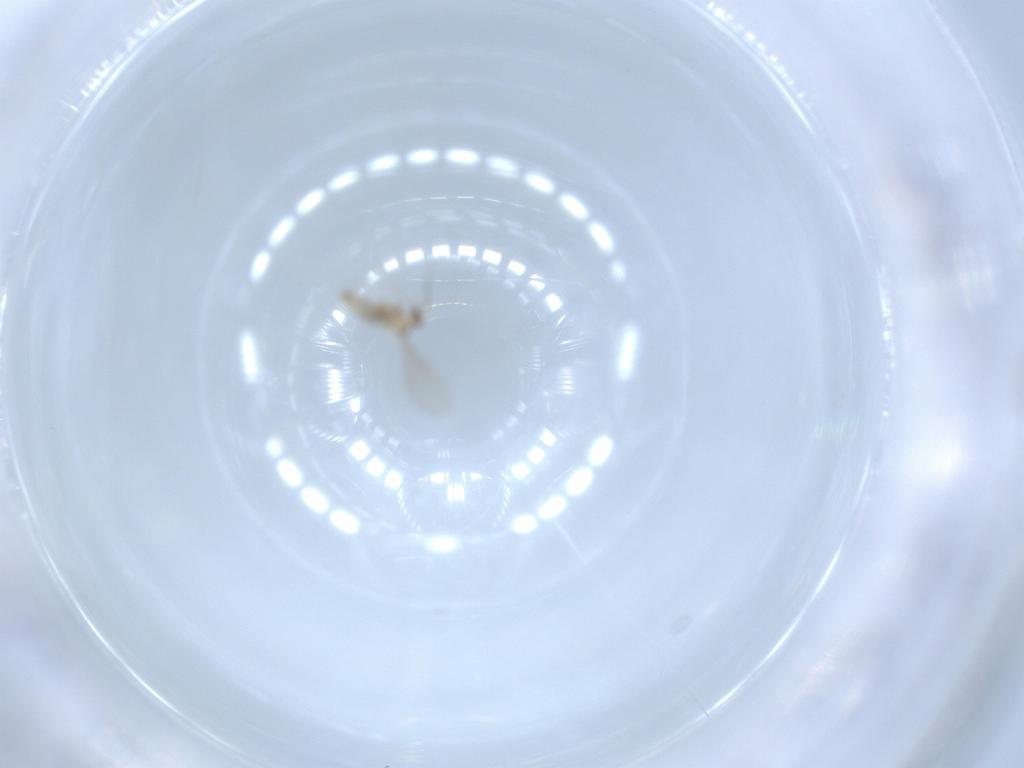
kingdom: Animalia
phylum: Arthropoda
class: Insecta
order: Diptera
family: Cecidomyiidae
